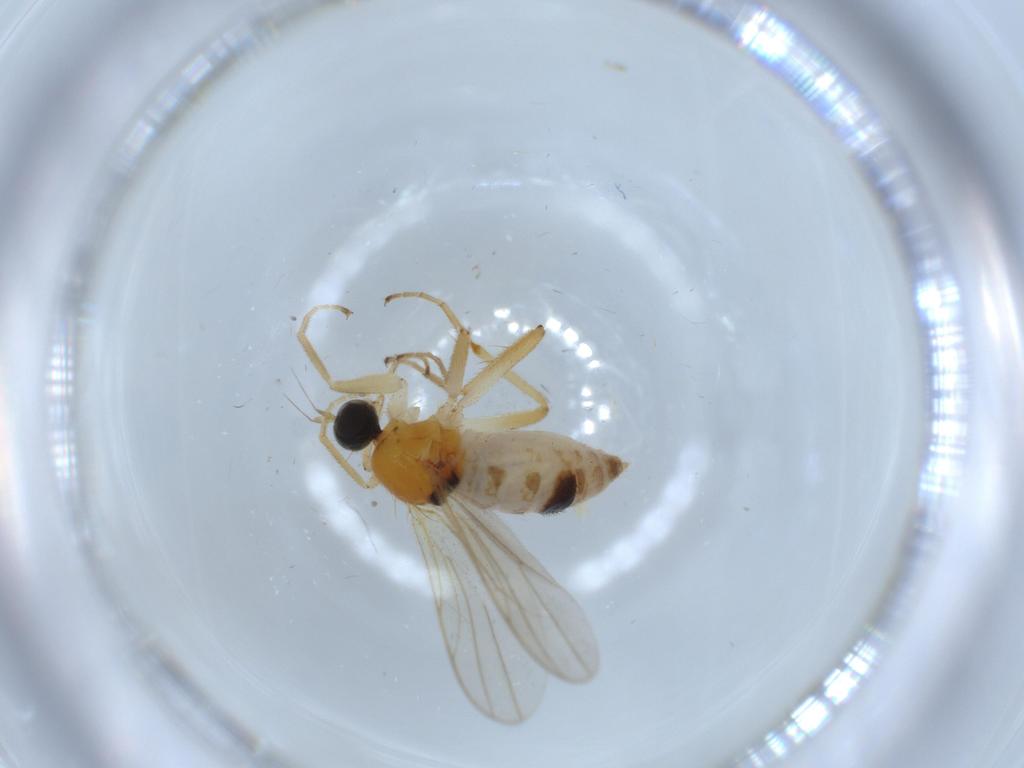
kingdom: Animalia
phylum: Arthropoda
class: Insecta
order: Diptera
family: Hybotidae
